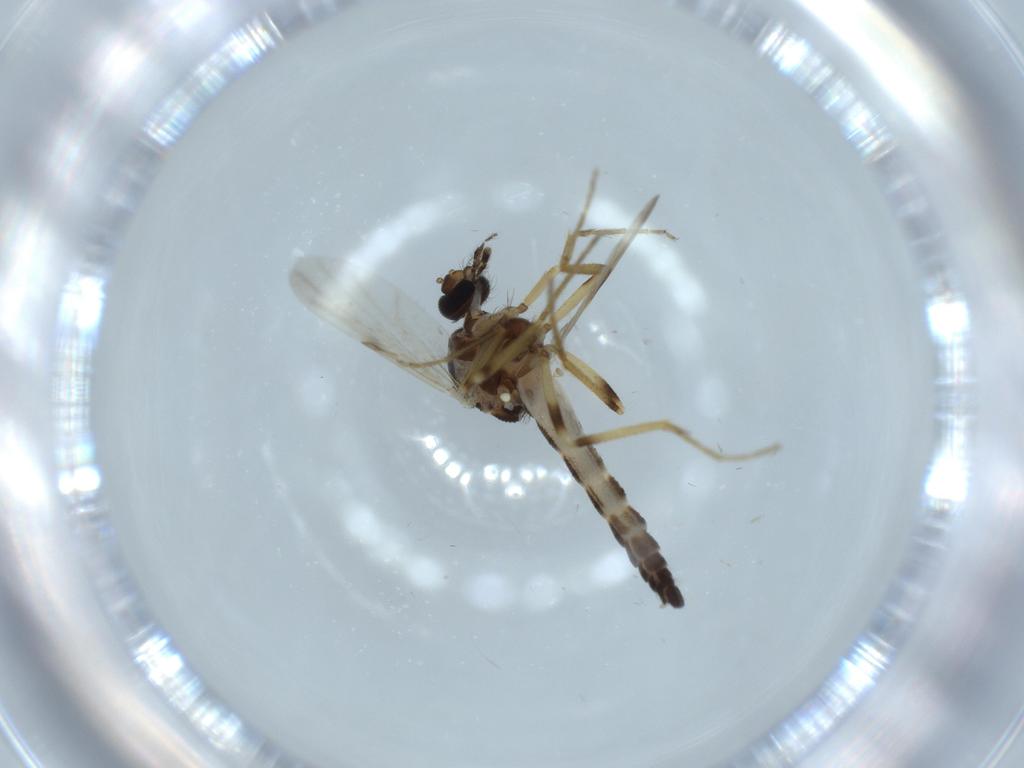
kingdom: Animalia
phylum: Arthropoda
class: Insecta
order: Diptera
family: Ceratopogonidae
